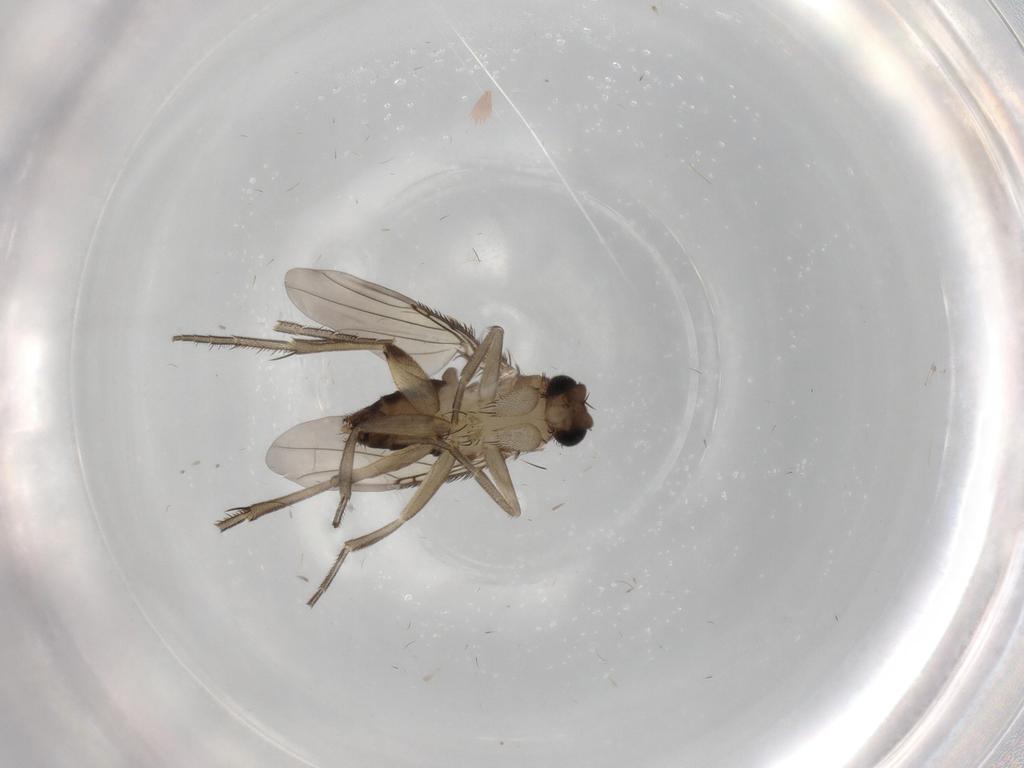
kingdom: Animalia
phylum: Arthropoda
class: Insecta
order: Diptera
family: Phoridae
